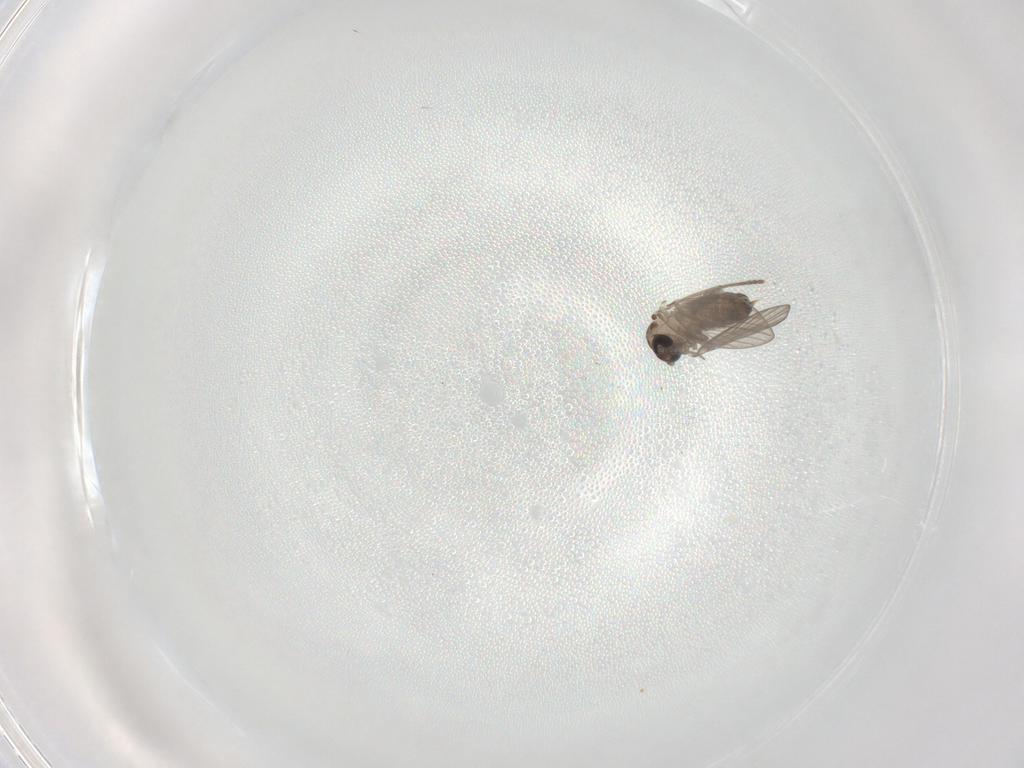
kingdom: Animalia
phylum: Arthropoda
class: Insecta
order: Diptera
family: Psychodidae
